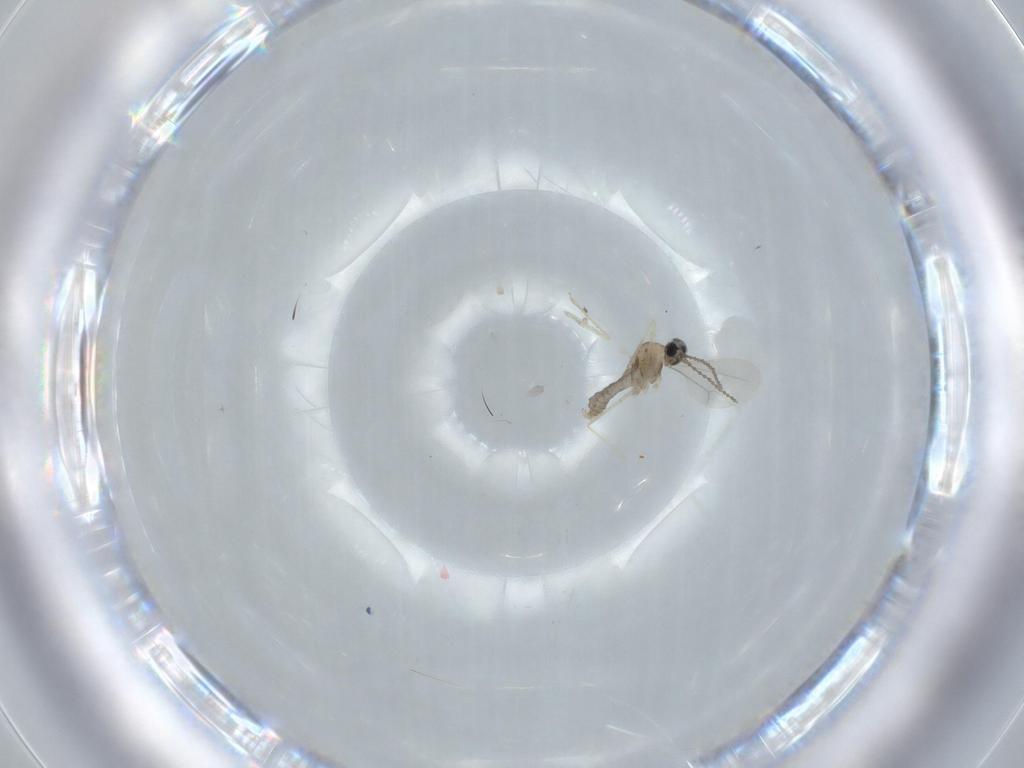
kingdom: Animalia
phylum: Arthropoda
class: Insecta
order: Diptera
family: Cecidomyiidae
